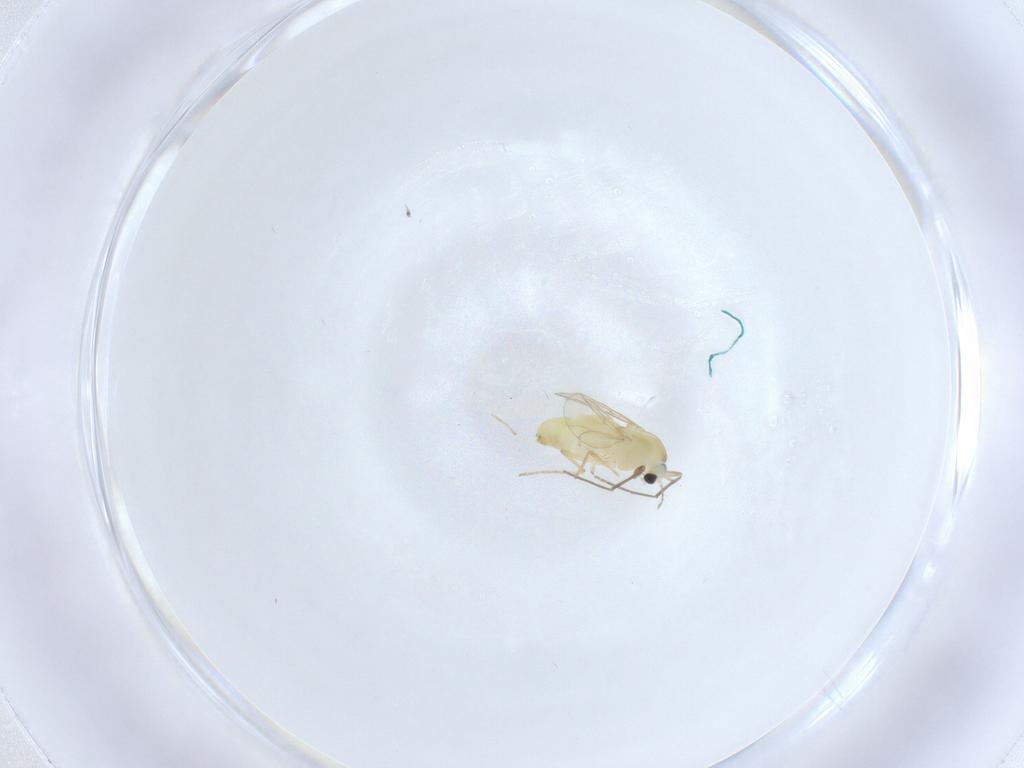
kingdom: Animalia
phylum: Arthropoda
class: Insecta
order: Diptera
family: Chironomidae
